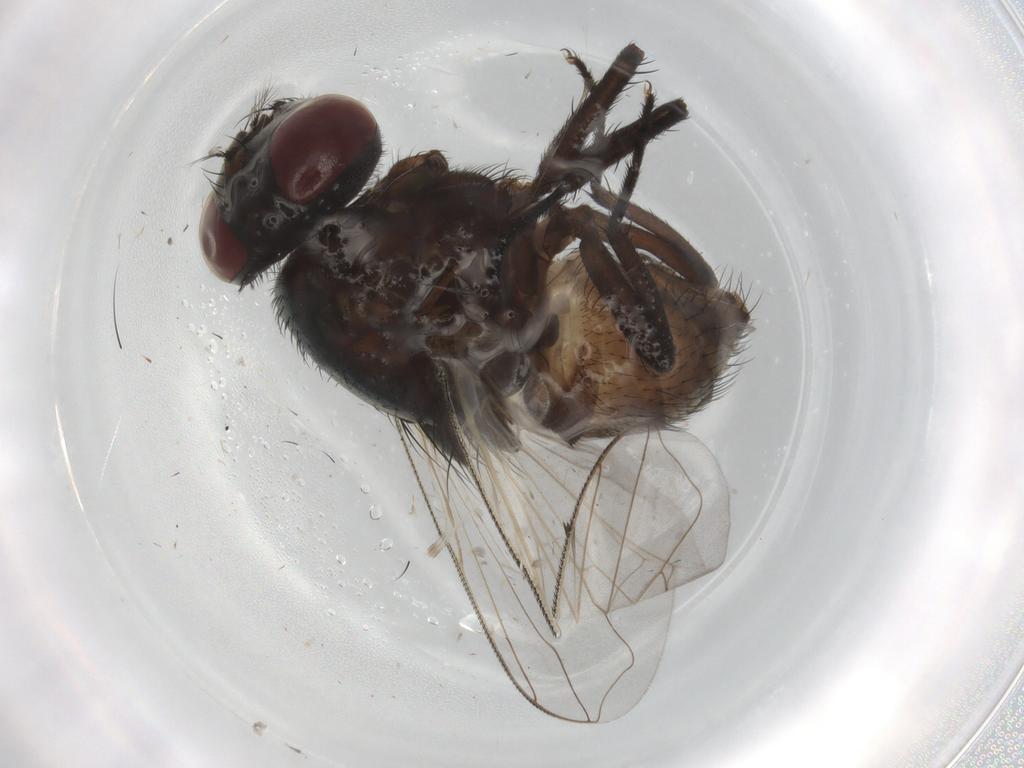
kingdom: Animalia
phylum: Arthropoda
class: Insecta
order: Diptera
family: Muscidae
